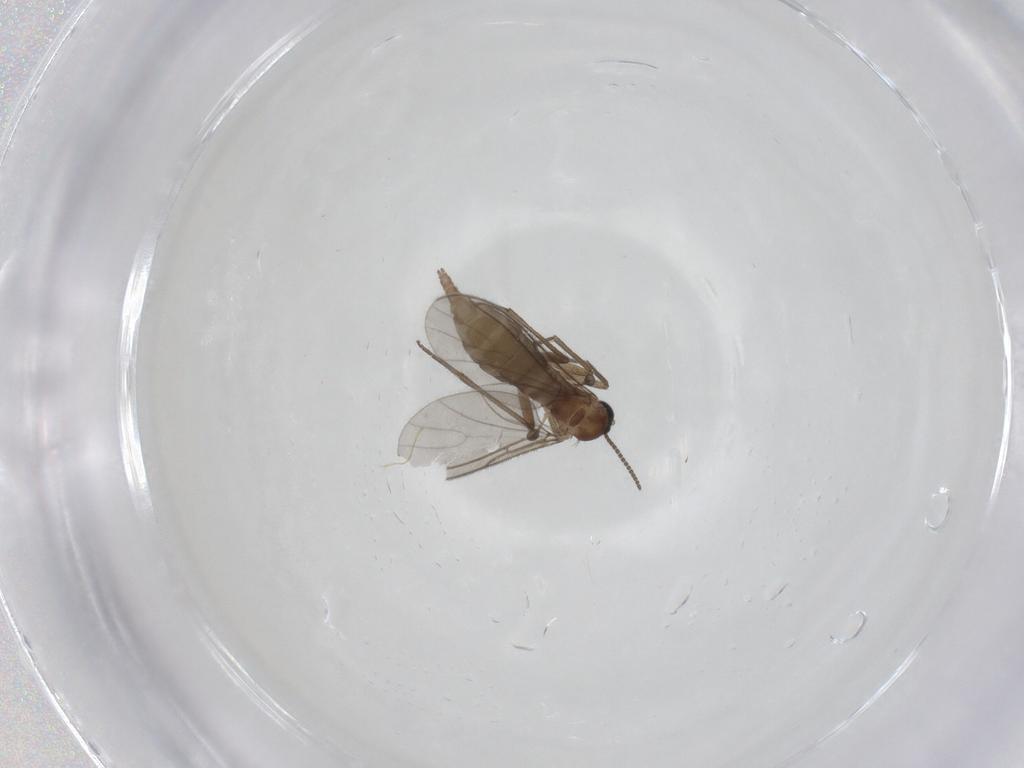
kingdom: Animalia
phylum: Arthropoda
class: Insecta
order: Diptera
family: Sciaridae
